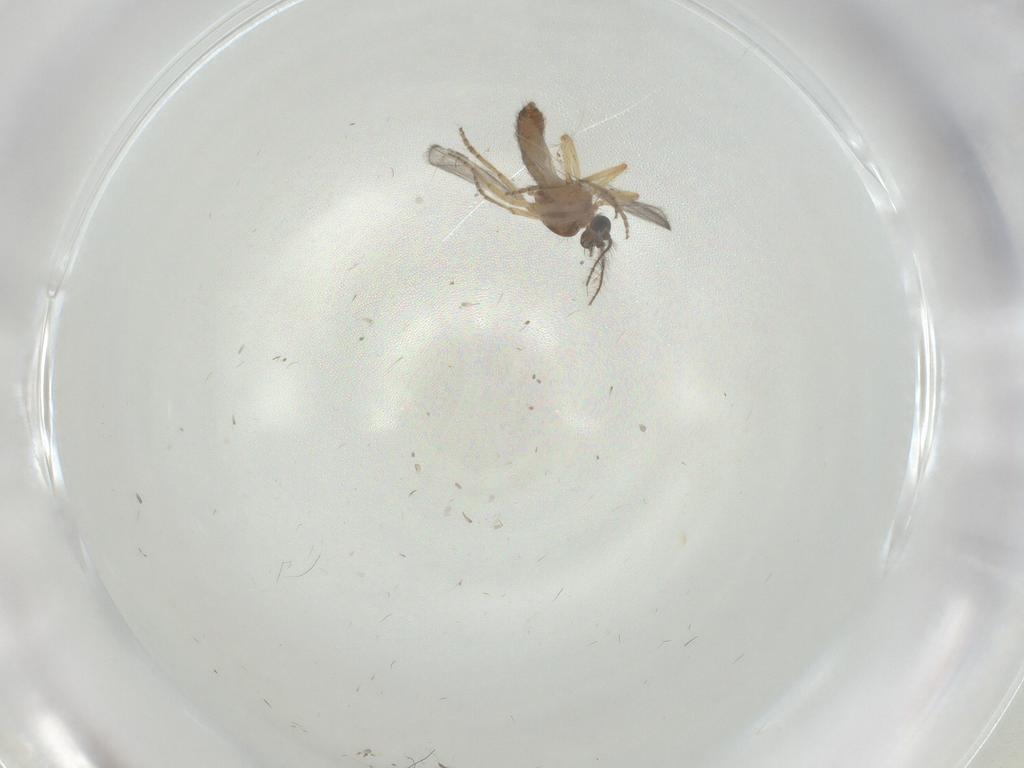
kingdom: Animalia
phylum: Arthropoda
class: Insecta
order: Diptera
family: Ceratopogonidae
